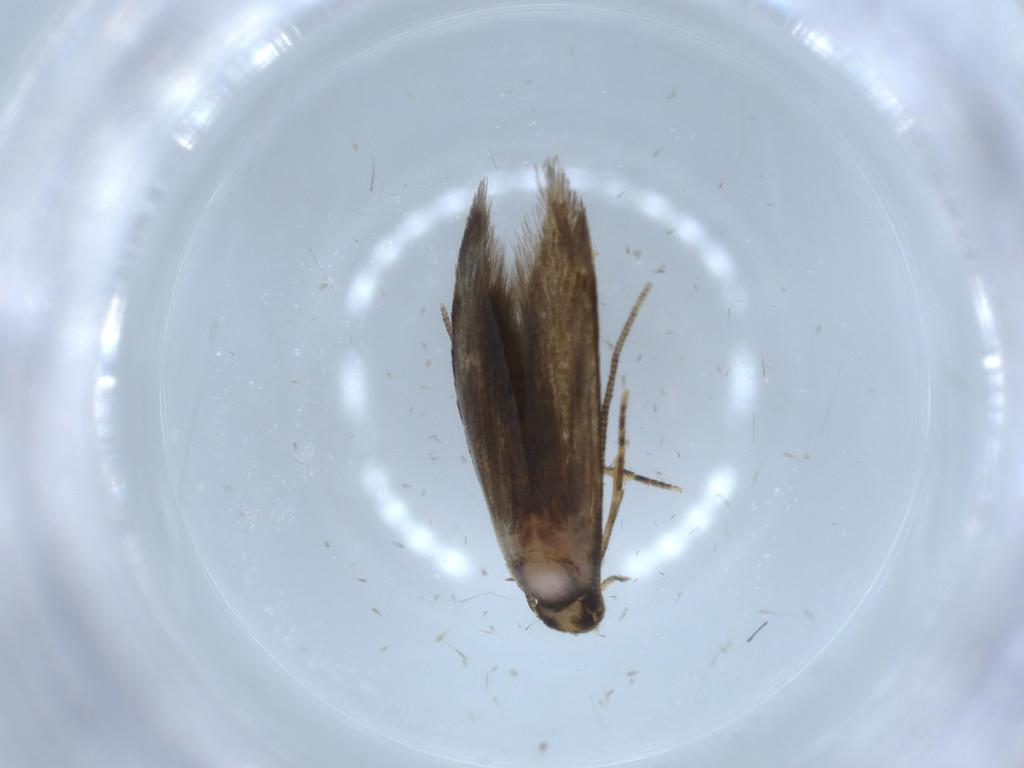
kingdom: Animalia
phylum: Arthropoda
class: Insecta
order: Lepidoptera
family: Tineidae
